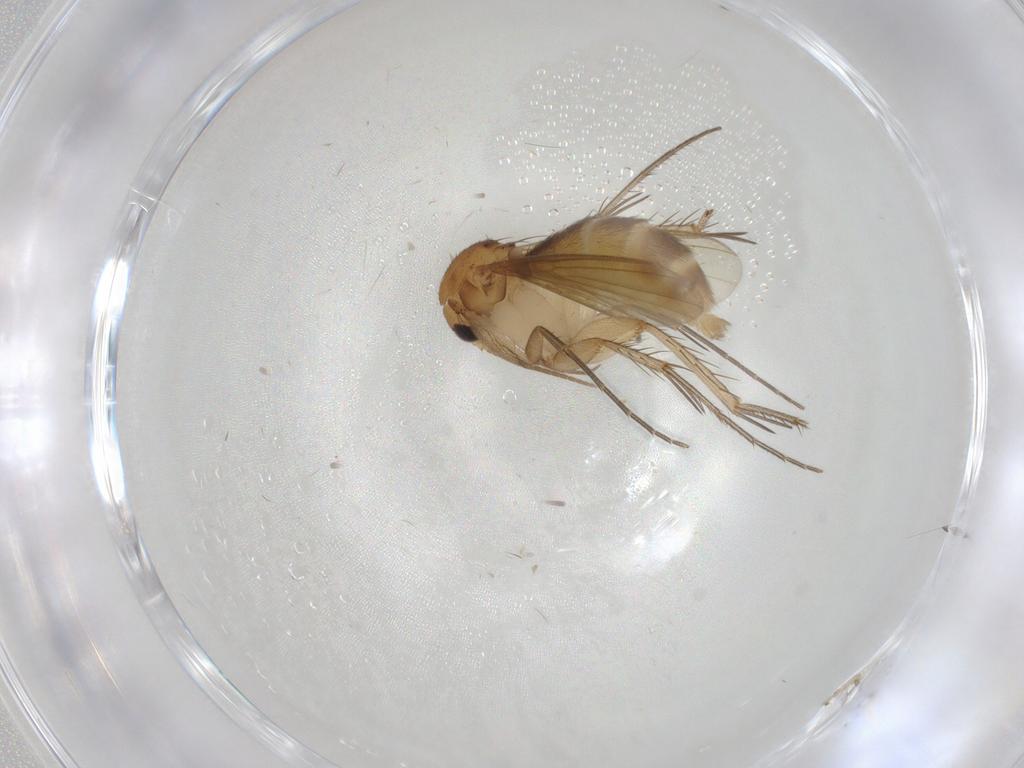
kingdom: Animalia
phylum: Arthropoda
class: Insecta
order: Diptera
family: Mycetophilidae
